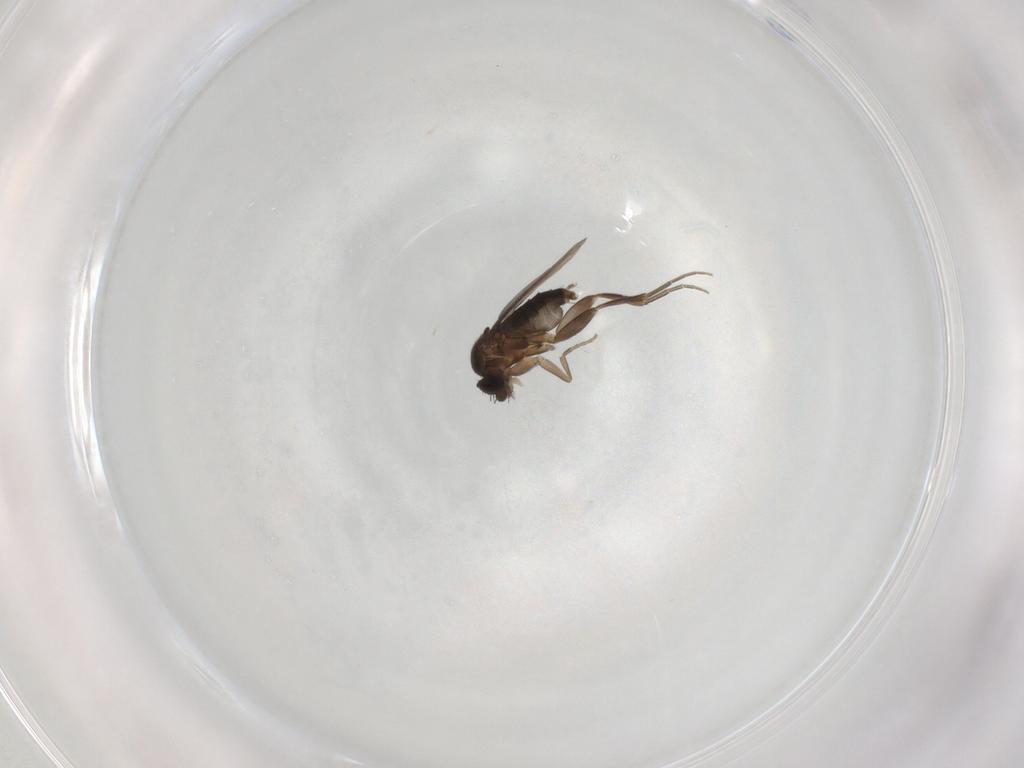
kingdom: Animalia
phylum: Arthropoda
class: Insecta
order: Diptera
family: Phoridae
